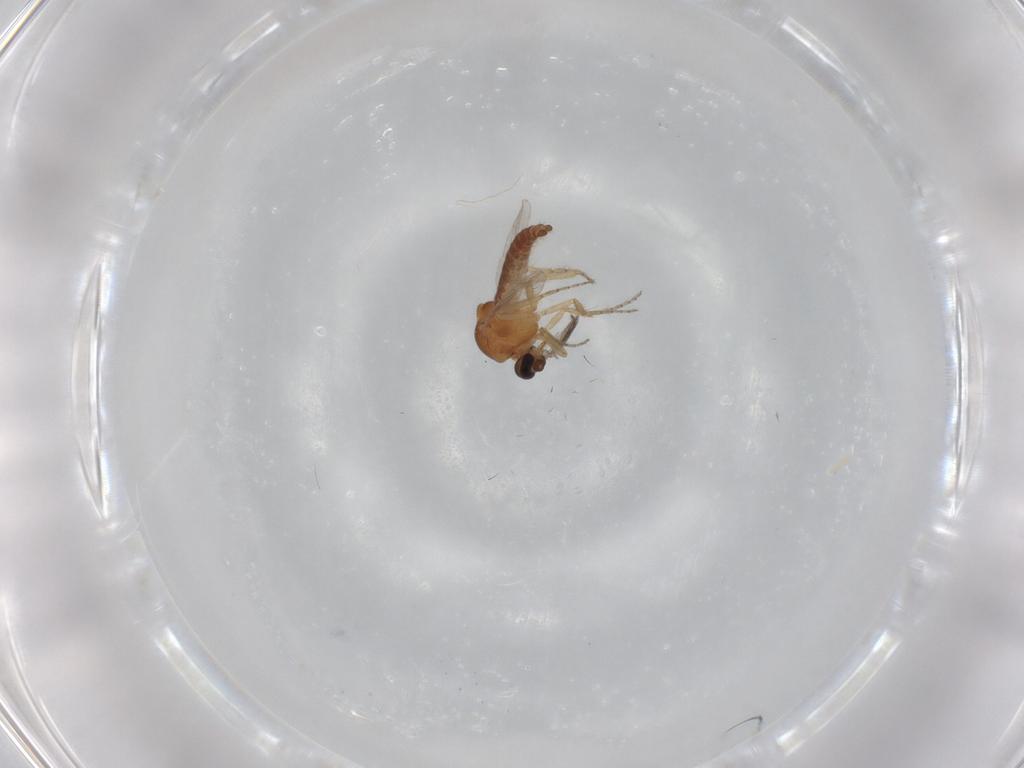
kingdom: Animalia
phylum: Arthropoda
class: Insecta
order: Diptera
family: Ceratopogonidae
